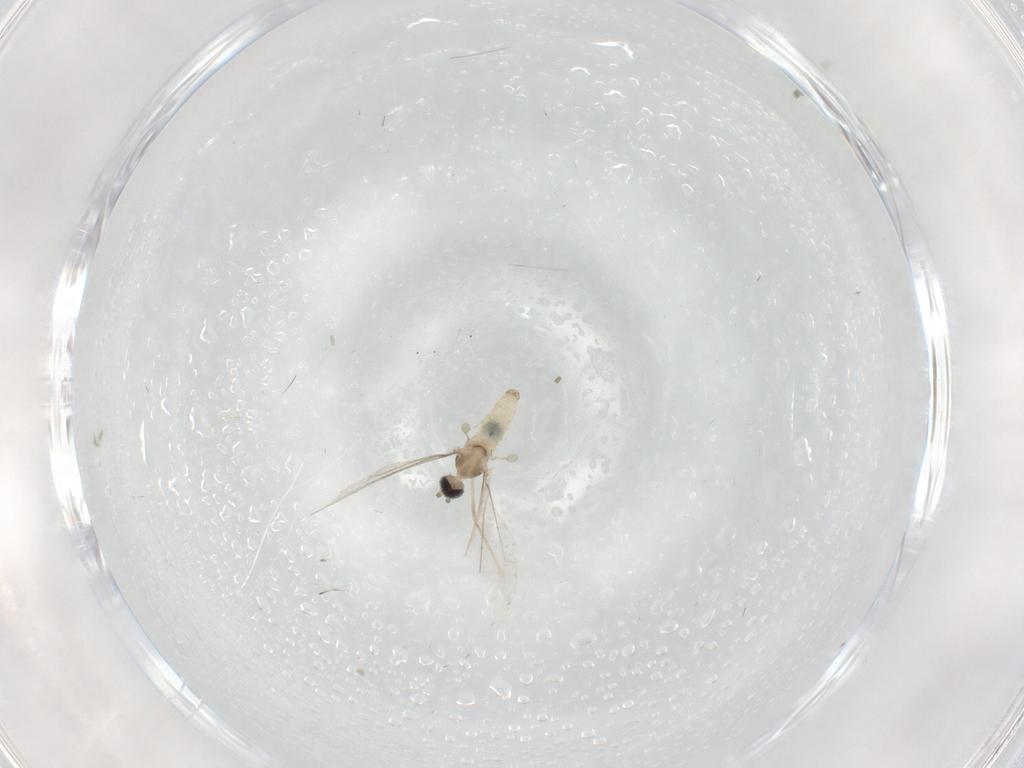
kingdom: Animalia
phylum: Arthropoda
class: Insecta
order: Diptera
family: Cecidomyiidae
